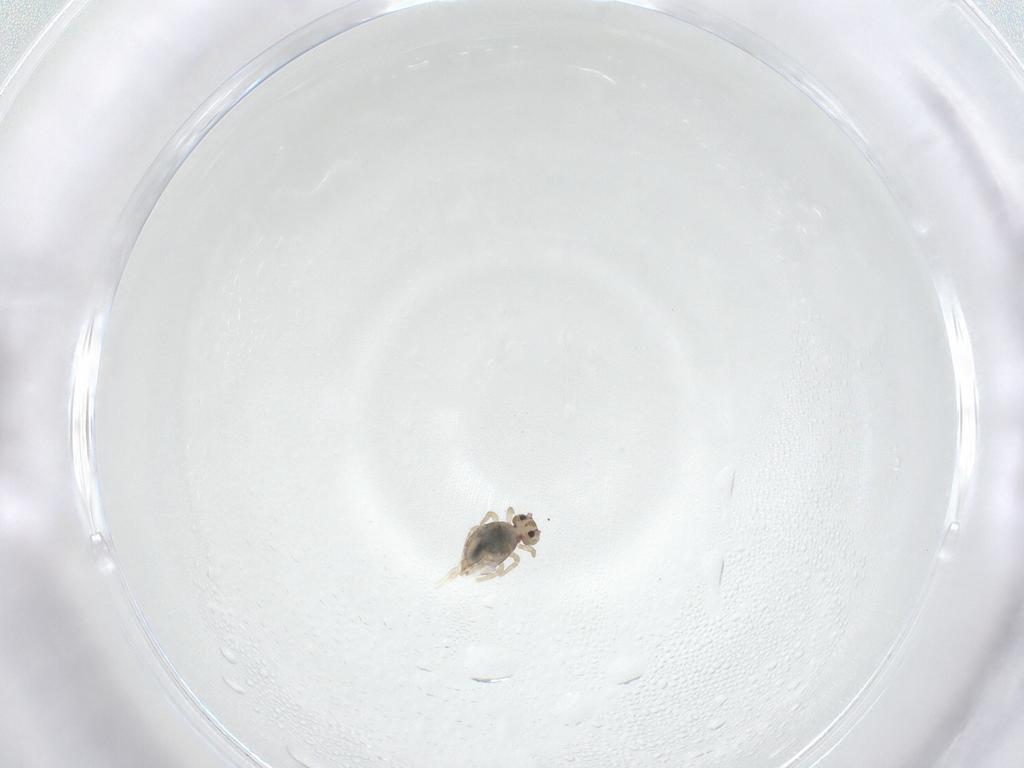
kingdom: Animalia
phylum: Arthropoda
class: Collembola
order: Symphypleona
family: Dicyrtomidae
